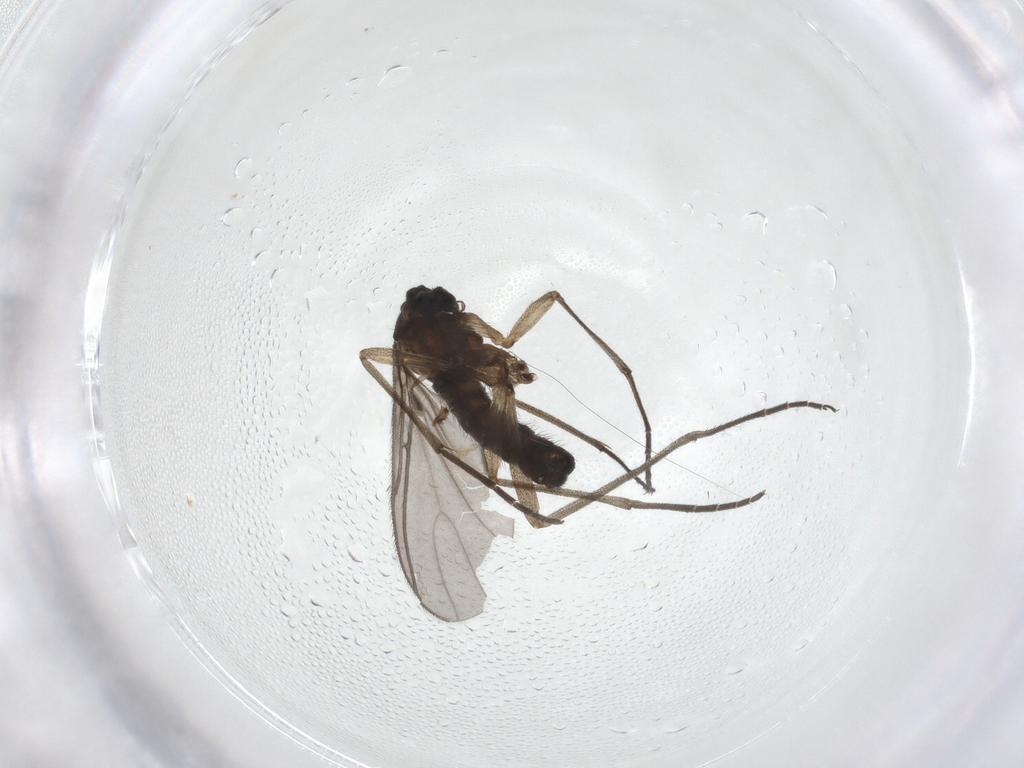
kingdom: Animalia
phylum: Arthropoda
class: Insecta
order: Diptera
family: Sciaridae
